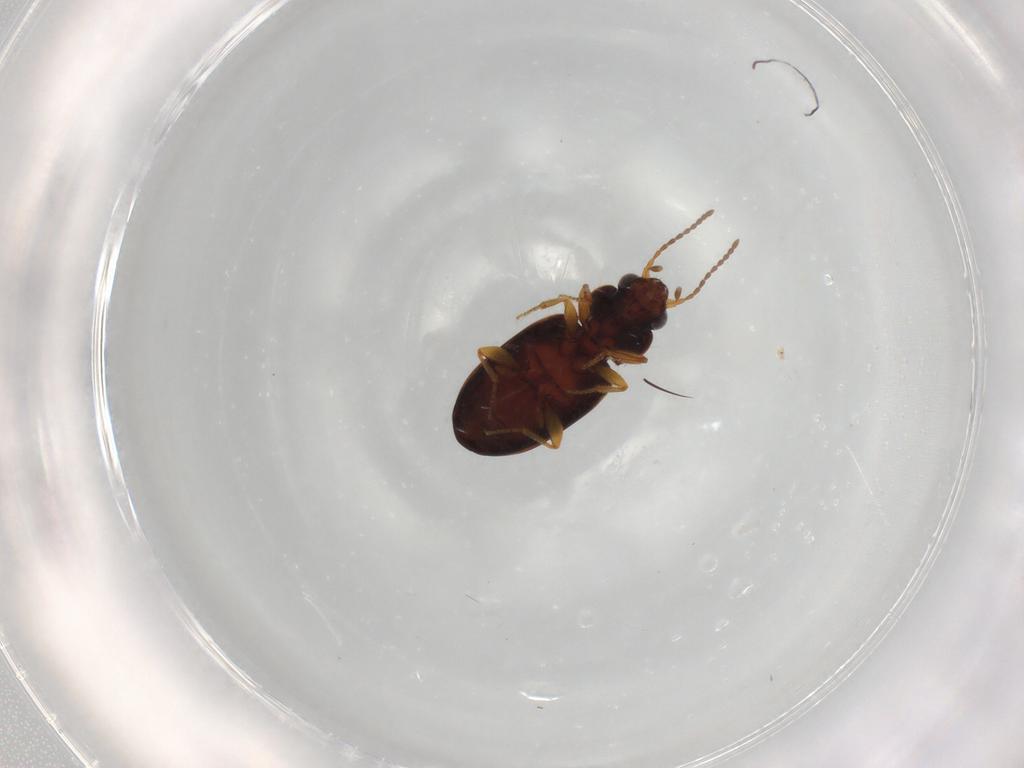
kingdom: Animalia
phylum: Arthropoda
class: Insecta
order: Coleoptera
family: Carabidae
